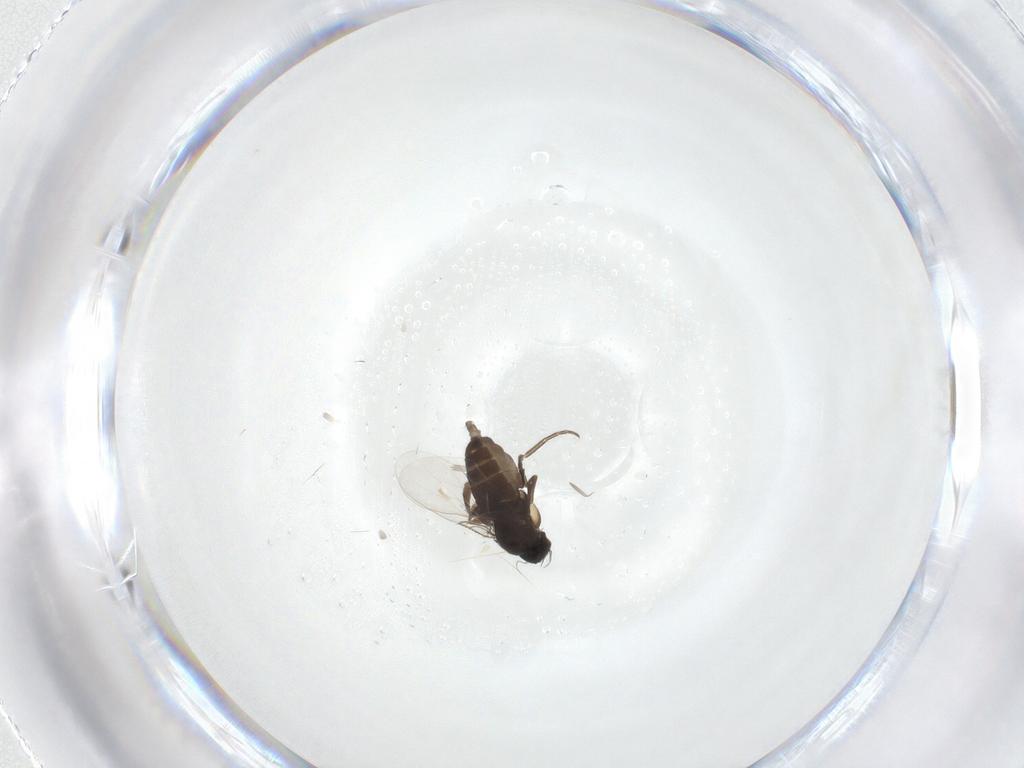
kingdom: Animalia
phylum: Arthropoda
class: Insecta
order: Diptera
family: Phoridae
